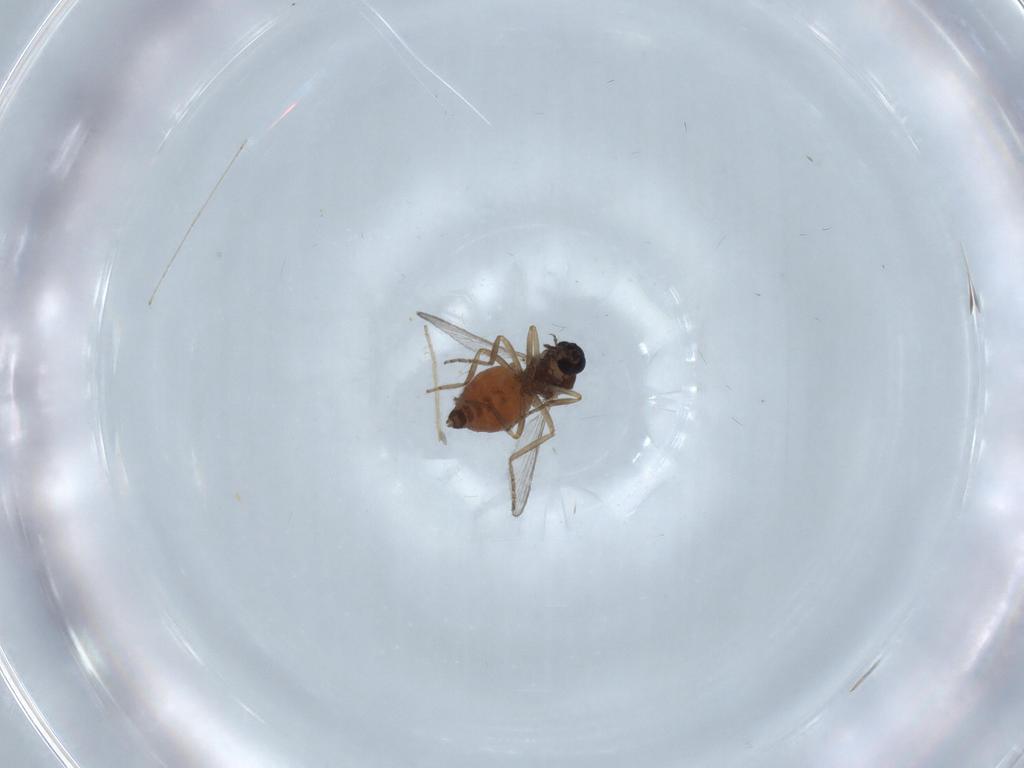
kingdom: Animalia
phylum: Arthropoda
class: Insecta
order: Diptera
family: Cecidomyiidae
